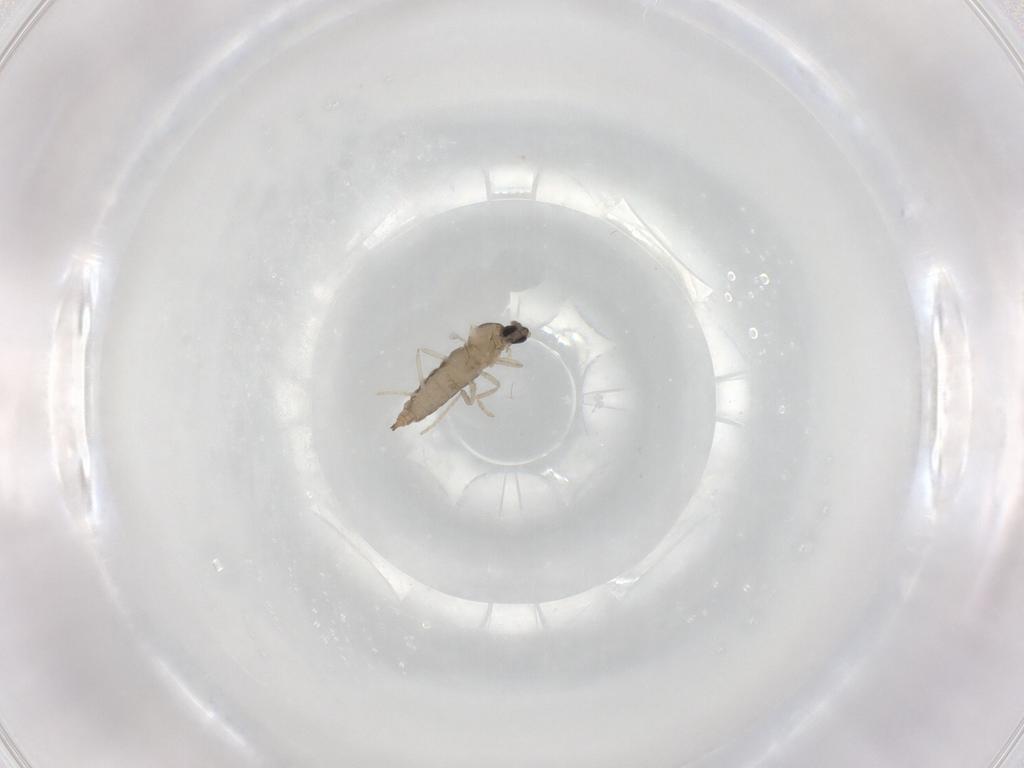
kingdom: Animalia
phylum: Arthropoda
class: Insecta
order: Diptera
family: Cecidomyiidae
